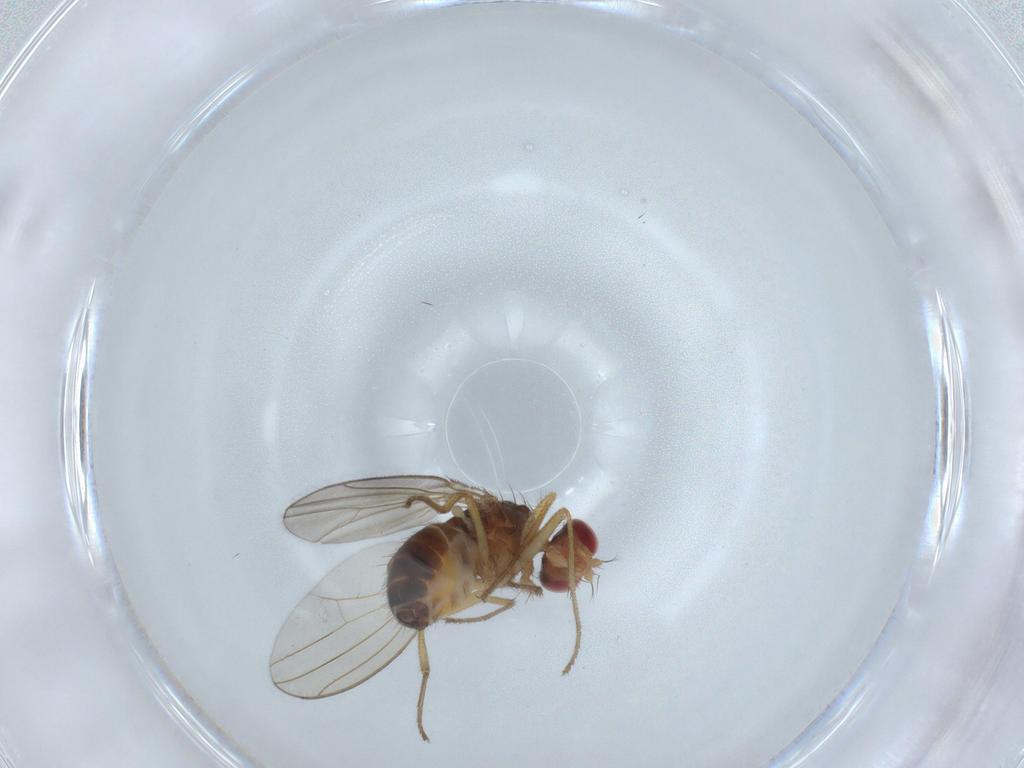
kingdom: Animalia
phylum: Arthropoda
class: Insecta
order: Diptera
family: Drosophilidae
